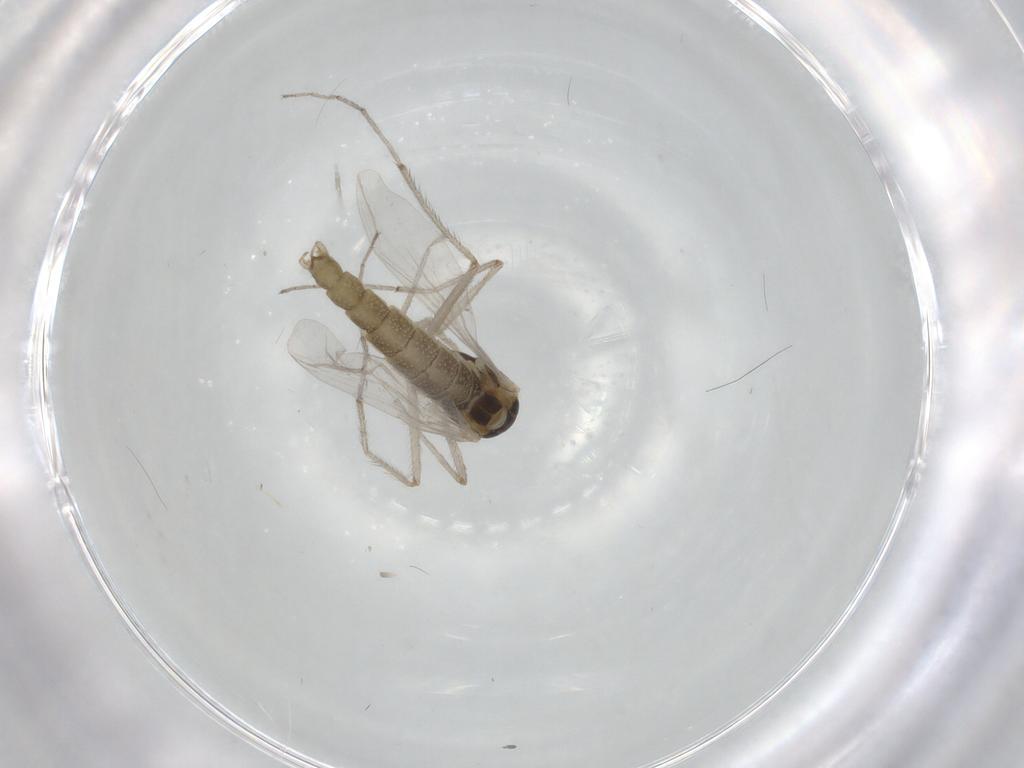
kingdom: Animalia
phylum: Arthropoda
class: Insecta
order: Diptera
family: Chironomidae
